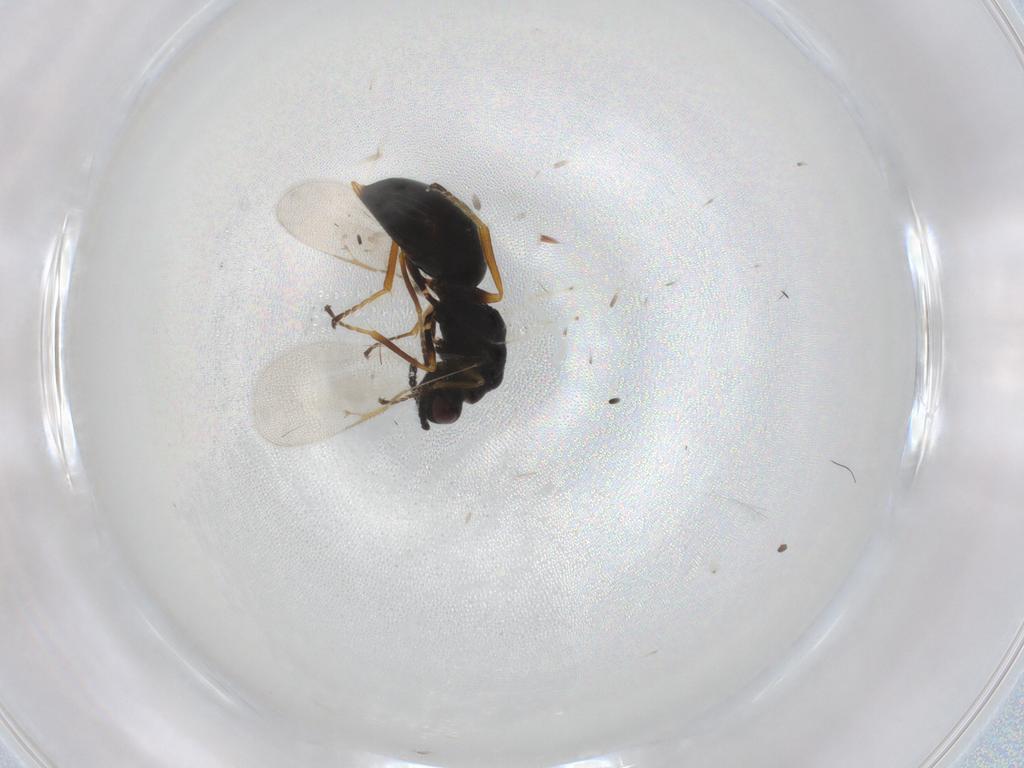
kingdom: Animalia
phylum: Arthropoda
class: Insecta
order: Hymenoptera
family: Eurytomidae
